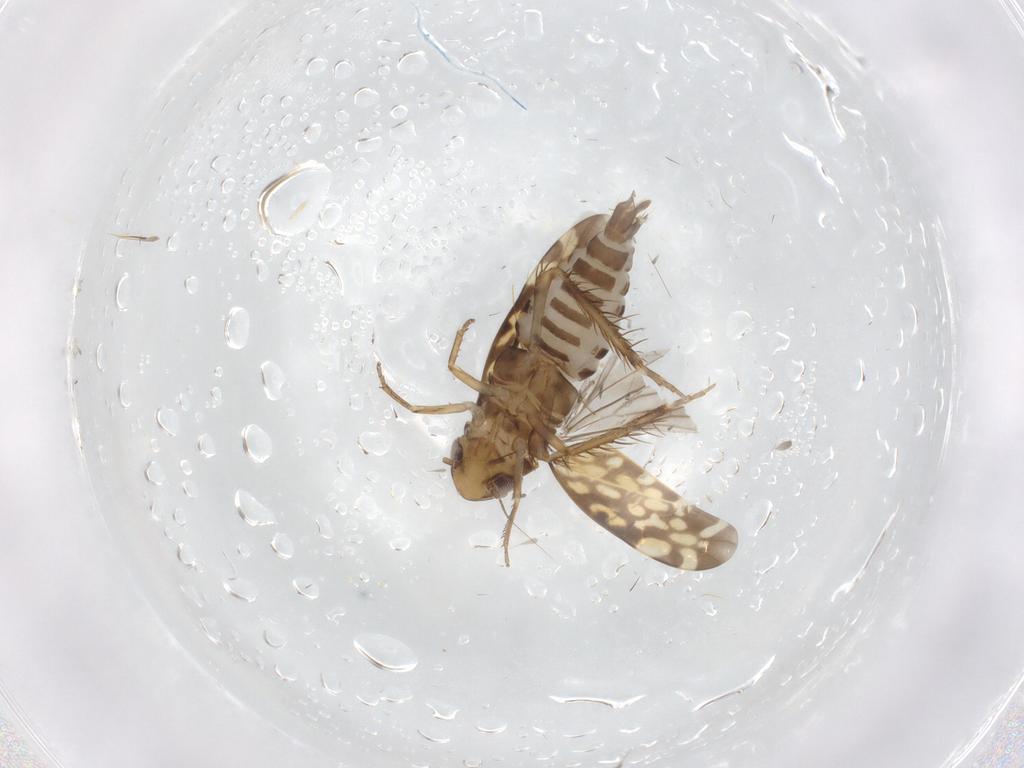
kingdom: Animalia
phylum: Arthropoda
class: Insecta
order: Hemiptera
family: Cicadellidae
